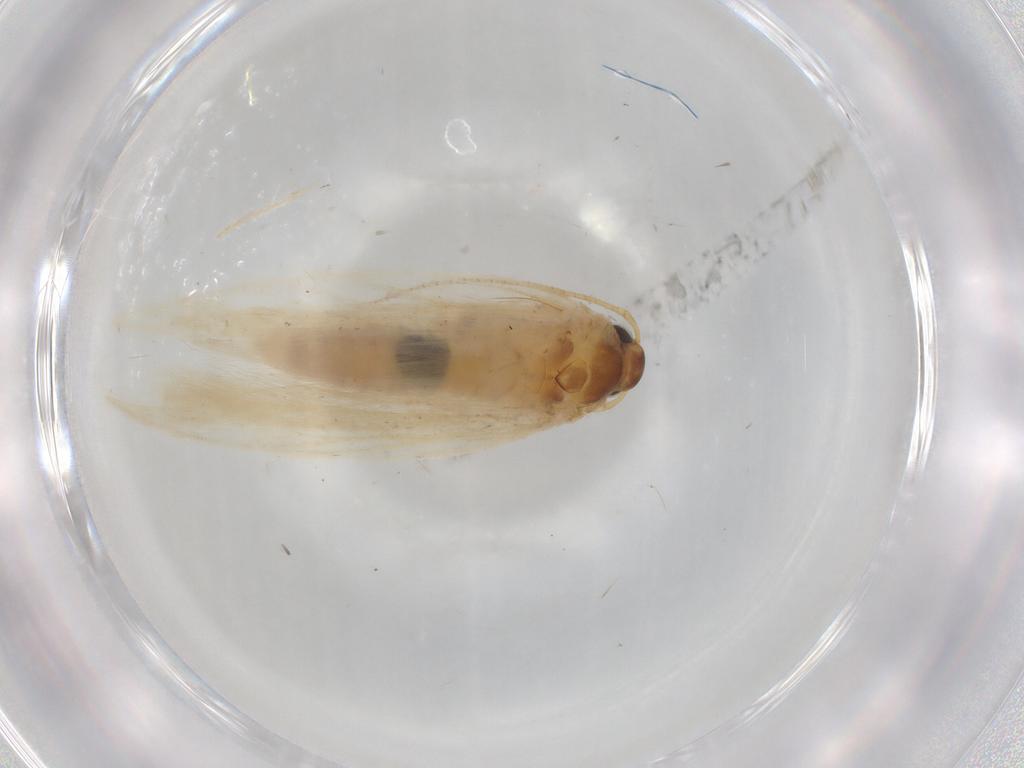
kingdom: Animalia
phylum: Arthropoda
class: Insecta
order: Lepidoptera
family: Gelechiidae
